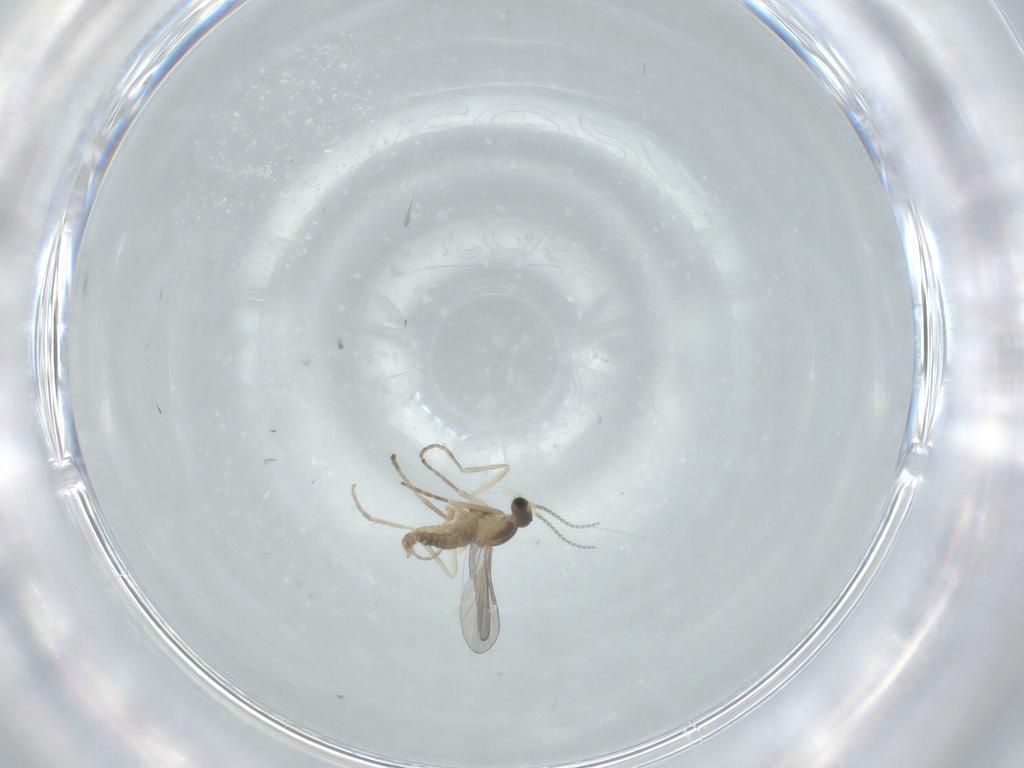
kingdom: Animalia
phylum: Arthropoda
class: Insecta
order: Diptera
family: Cecidomyiidae
